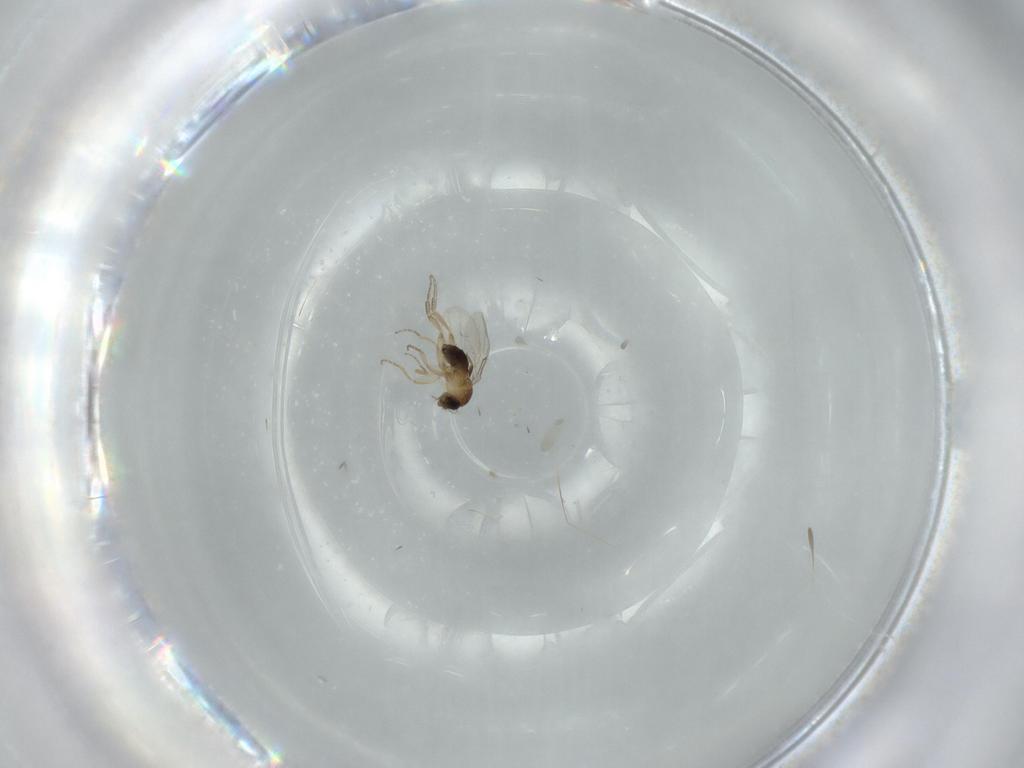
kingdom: Animalia
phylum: Arthropoda
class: Insecta
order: Diptera
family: Phoridae
